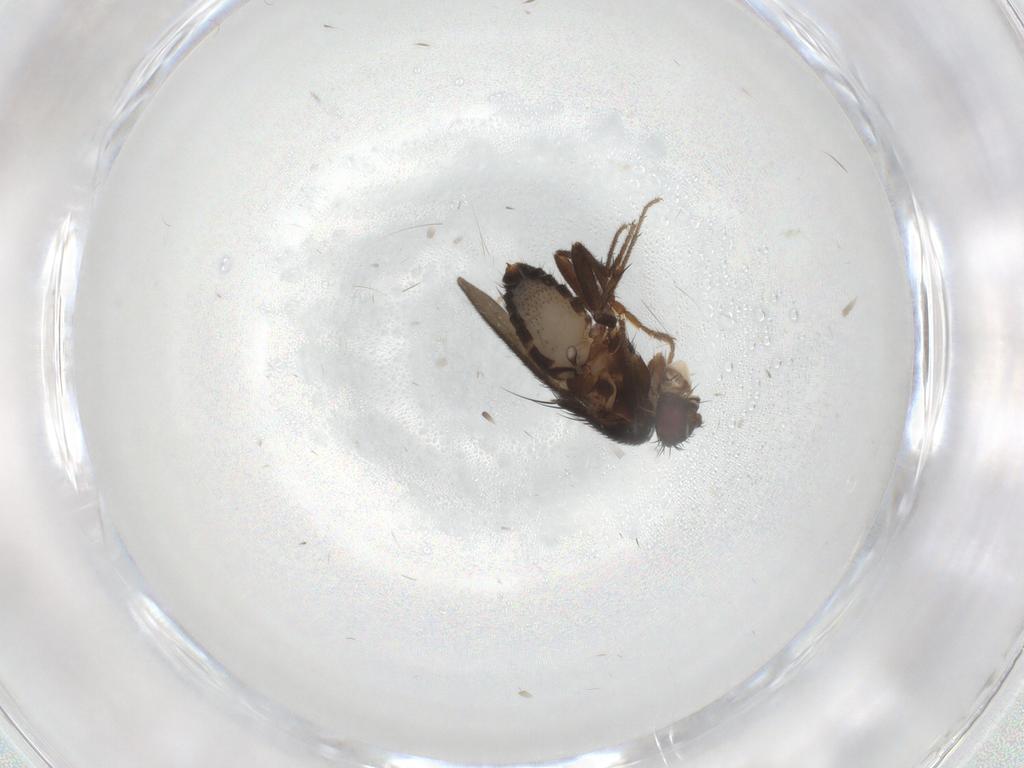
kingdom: Animalia
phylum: Arthropoda
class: Insecta
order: Diptera
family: Sphaeroceridae
